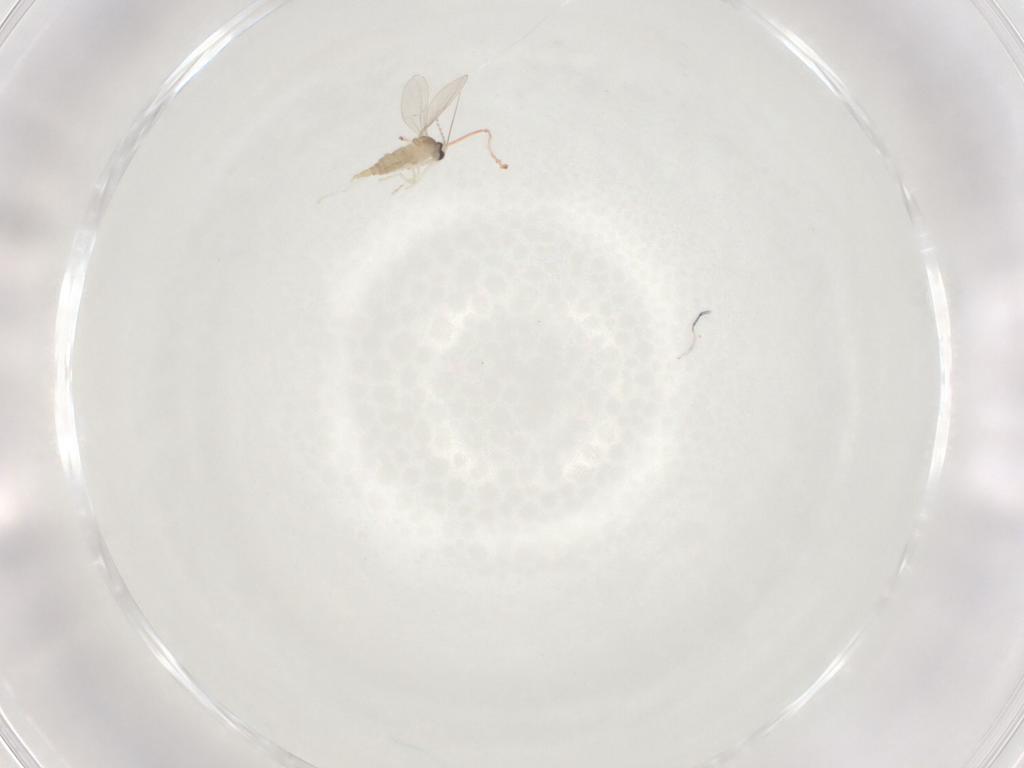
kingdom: Animalia
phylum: Arthropoda
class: Insecta
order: Diptera
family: Cecidomyiidae
